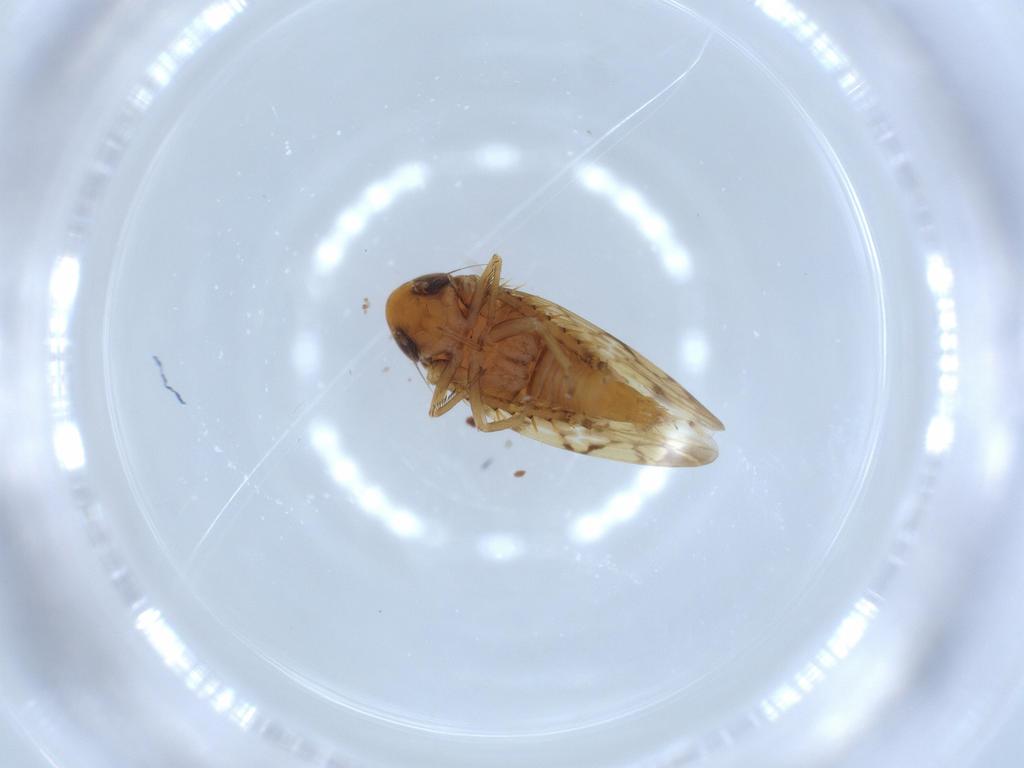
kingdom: Animalia
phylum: Arthropoda
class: Insecta
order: Hemiptera
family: Cicadellidae
